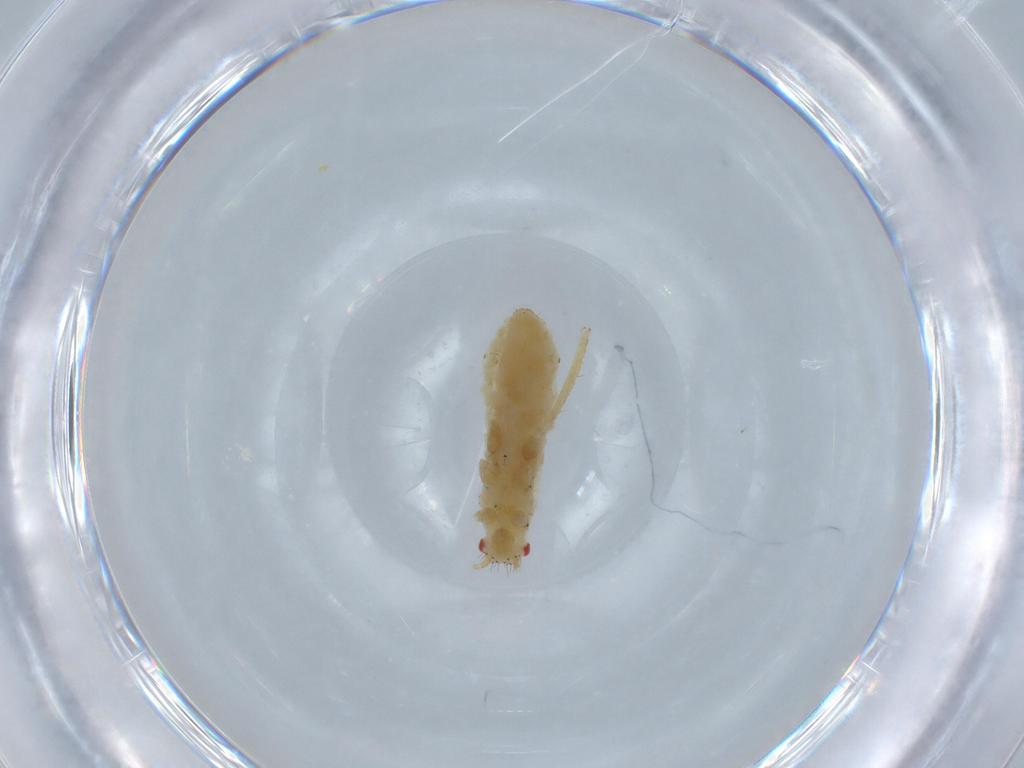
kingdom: Animalia
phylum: Arthropoda
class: Insecta
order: Hemiptera
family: Aphididae
